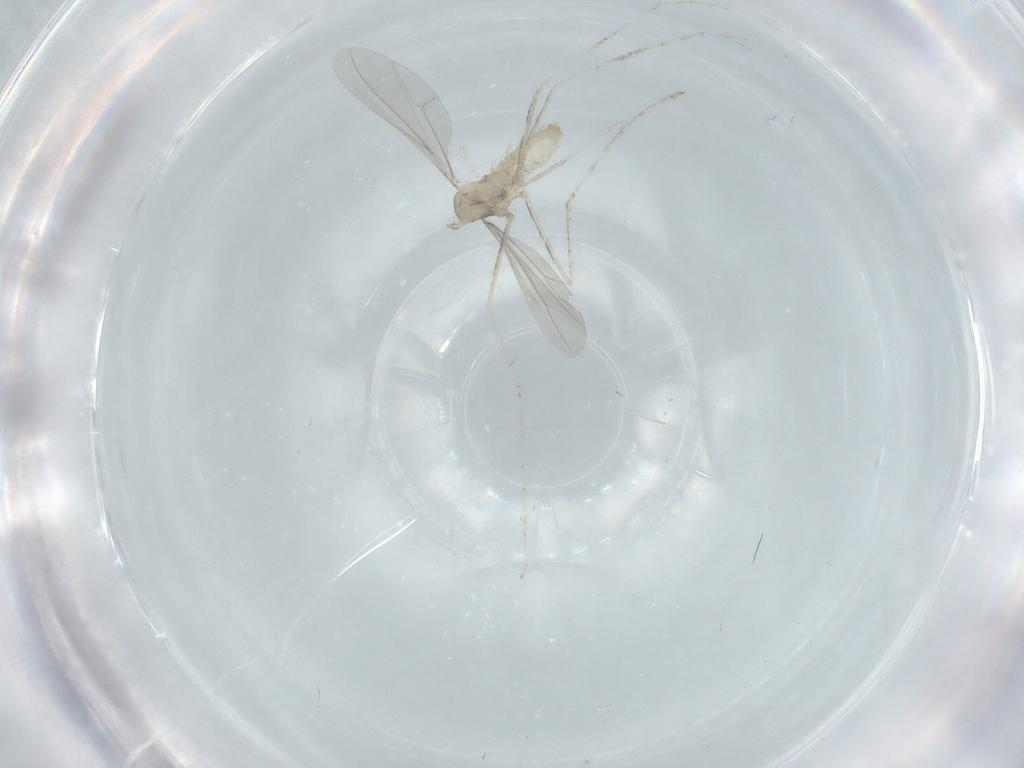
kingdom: Animalia
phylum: Arthropoda
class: Insecta
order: Diptera
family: Cecidomyiidae
